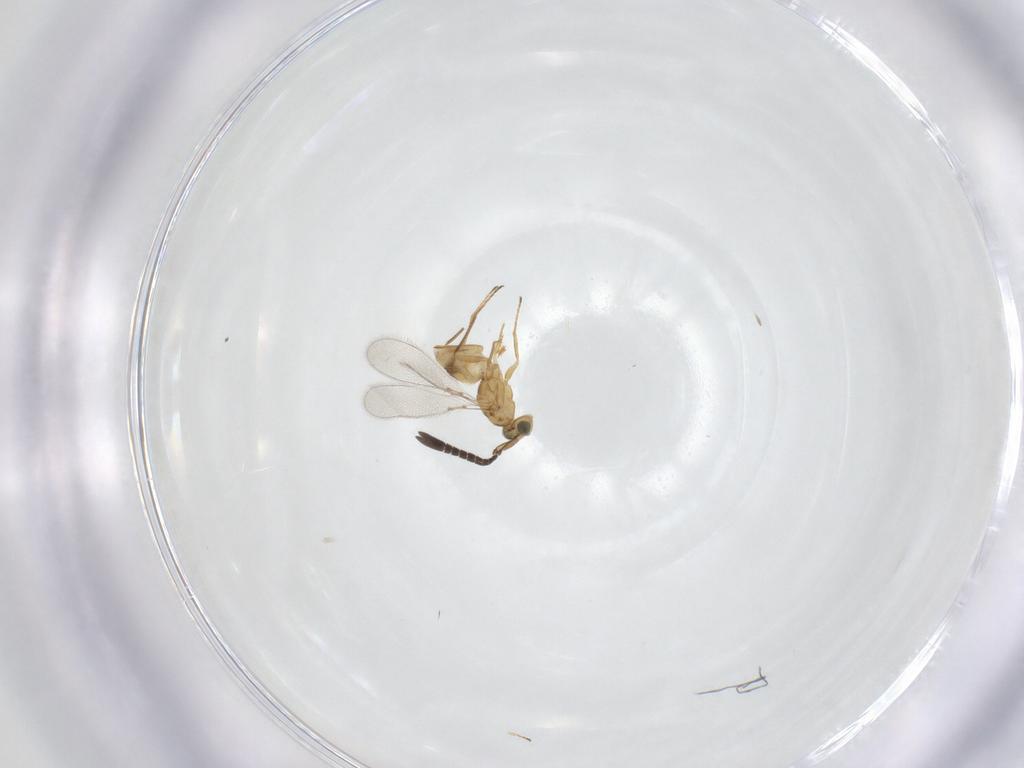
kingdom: Animalia
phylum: Arthropoda
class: Insecta
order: Hymenoptera
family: Mymaridae
